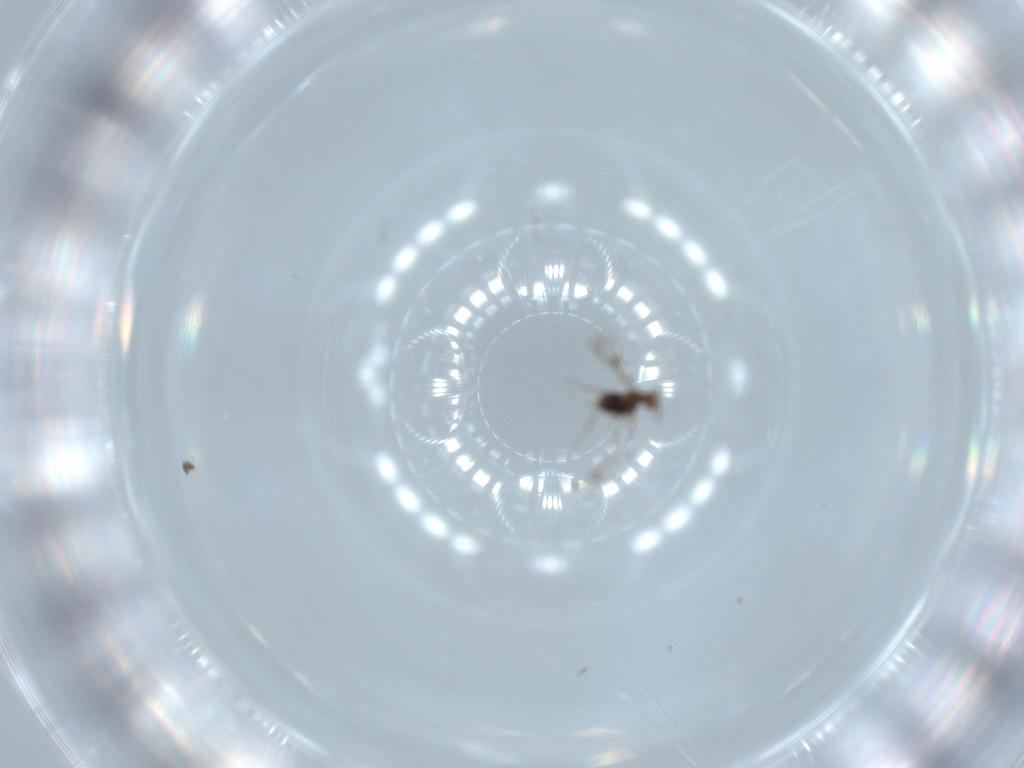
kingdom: Animalia
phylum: Arthropoda
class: Insecta
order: Hymenoptera
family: Trichogrammatidae
